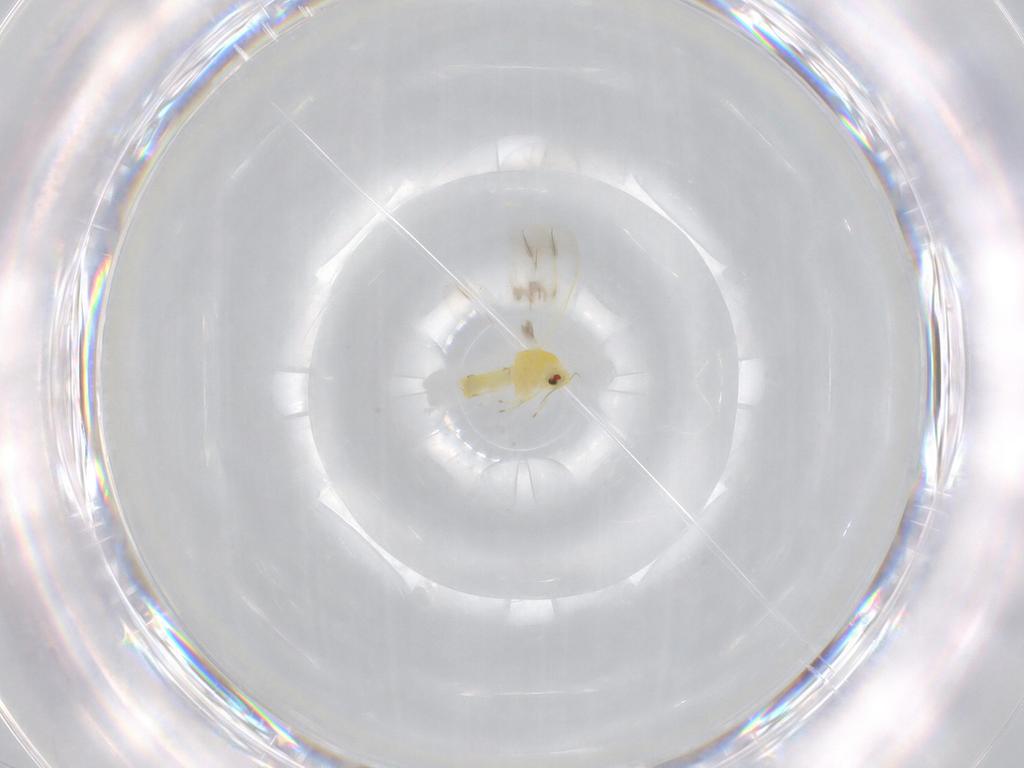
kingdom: Animalia
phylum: Arthropoda
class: Insecta
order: Hemiptera
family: Aleyrodidae
